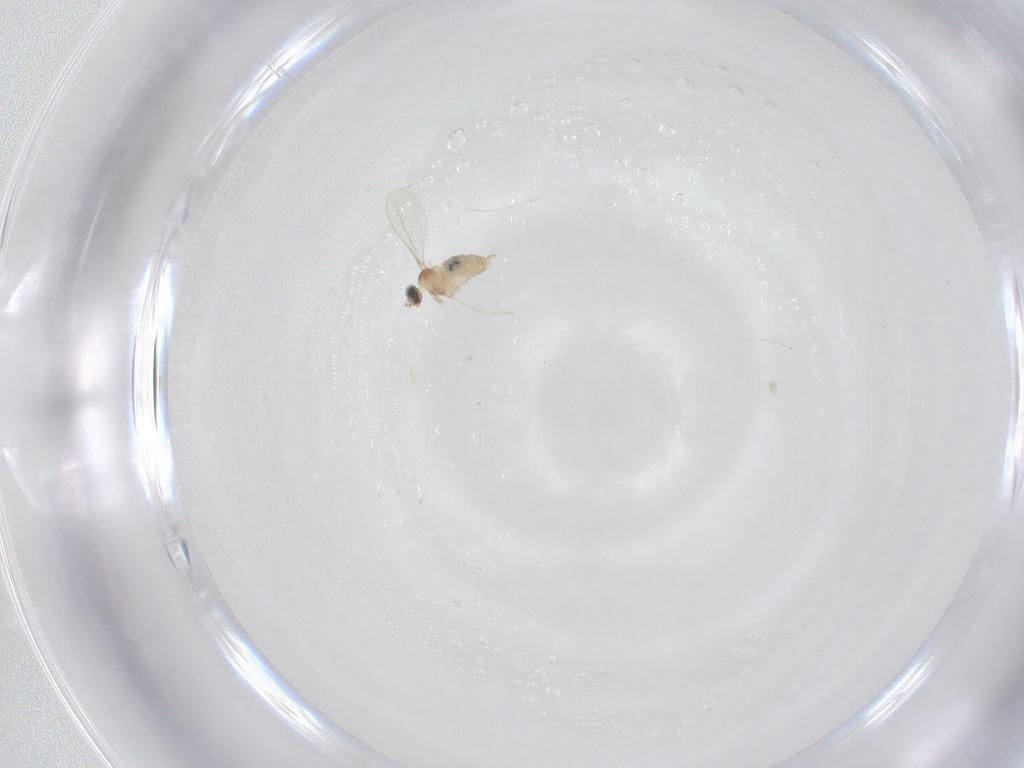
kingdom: Animalia
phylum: Arthropoda
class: Insecta
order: Diptera
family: Cecidomyiidae
